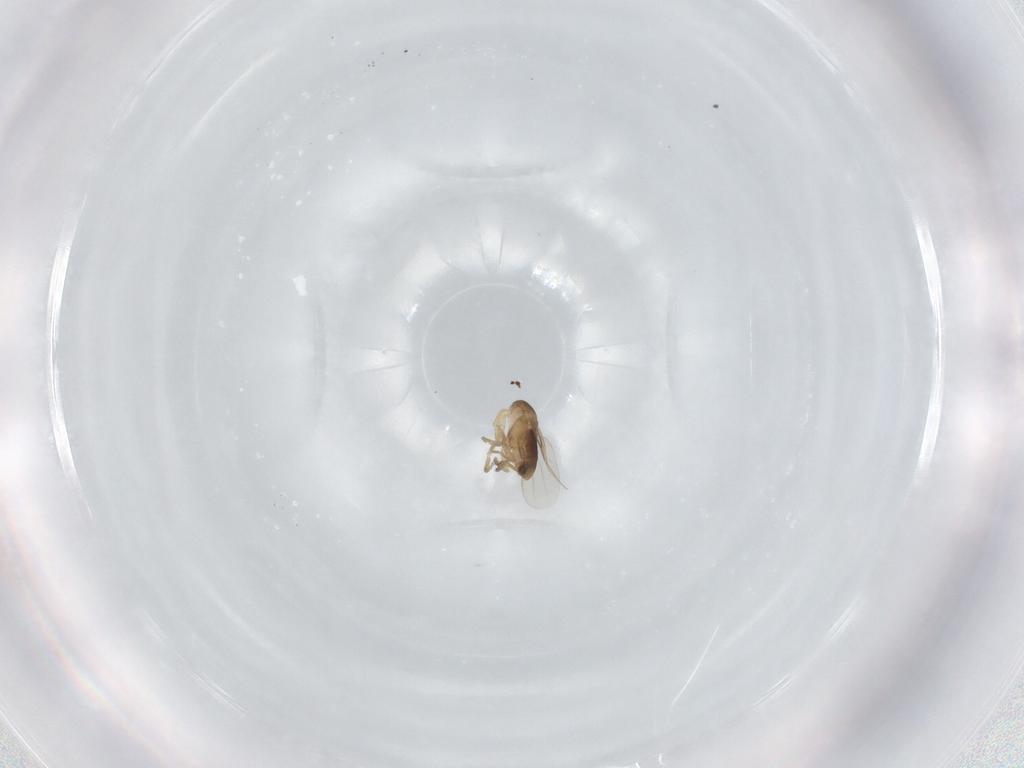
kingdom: Animalia
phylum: Arthropoda
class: Insecta
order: Diptera
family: Phoridae
